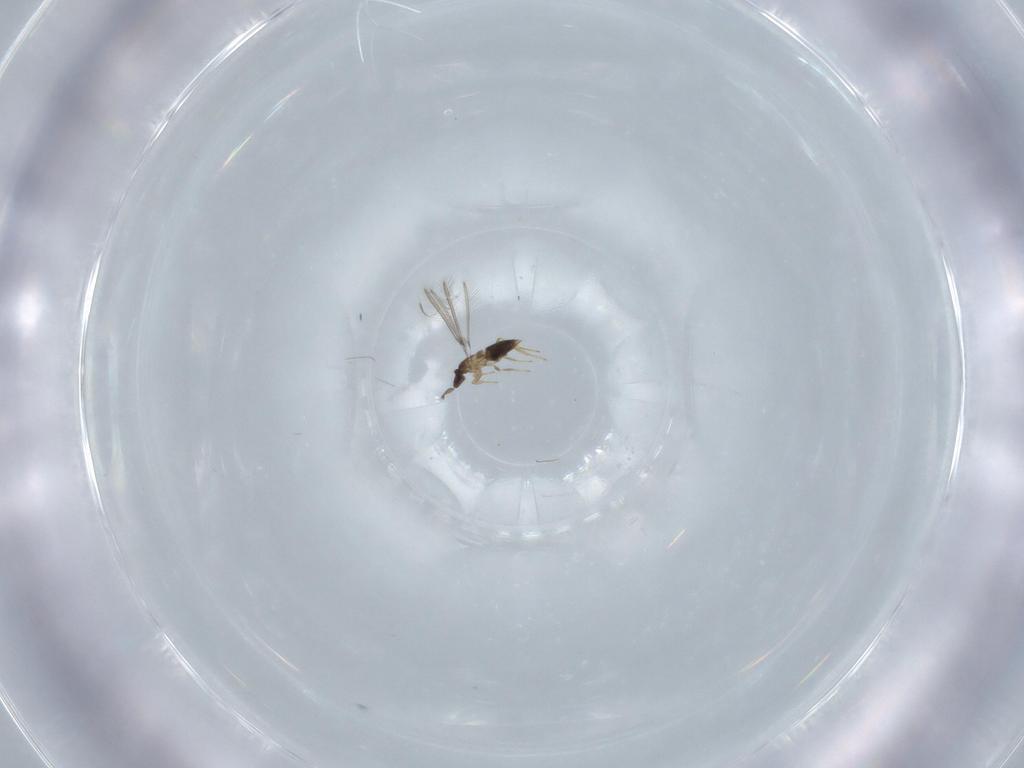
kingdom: Animalia
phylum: Arthropoda
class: Insecta
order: Hymenoptera
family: Mymaridae
